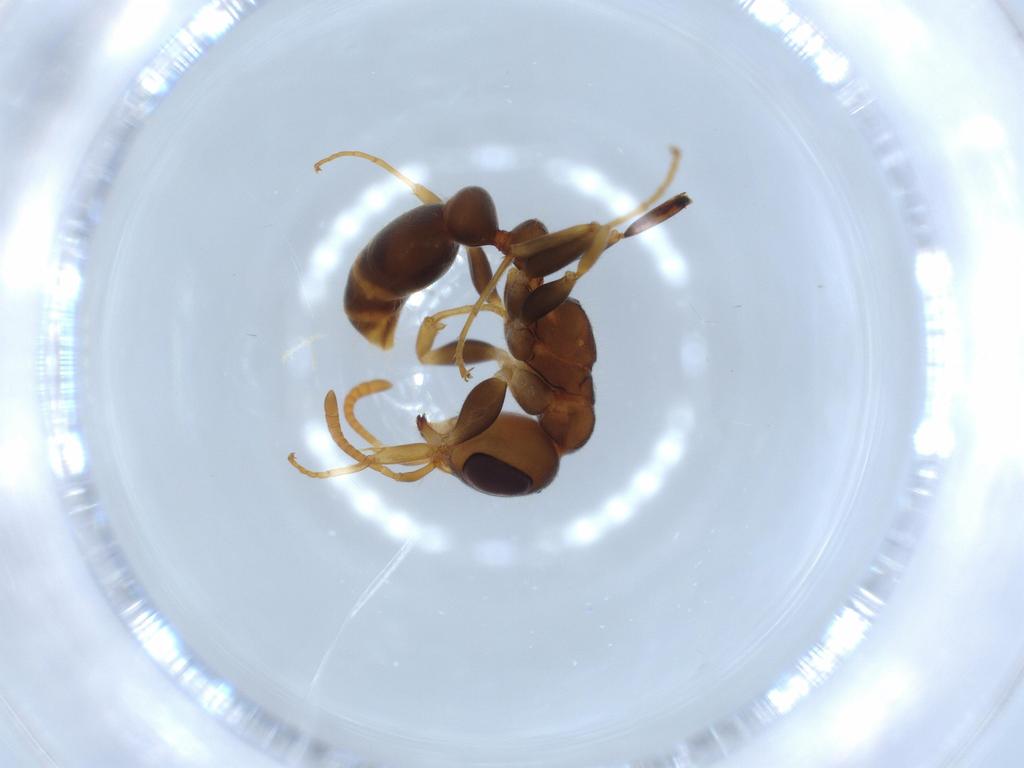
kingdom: Animalia
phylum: Arthropoda
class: Insecta
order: Hymenoptera
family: Formicidae
